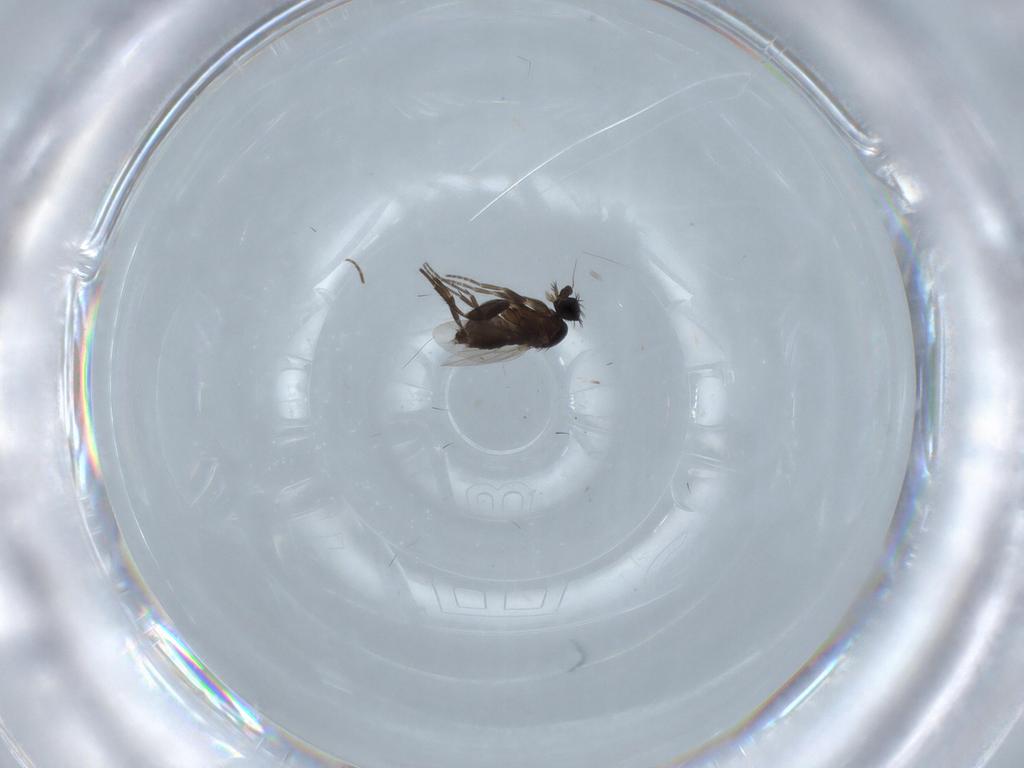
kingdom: Animalia
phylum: Arthropoda
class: Insecta
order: Diptera
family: Phoridae
